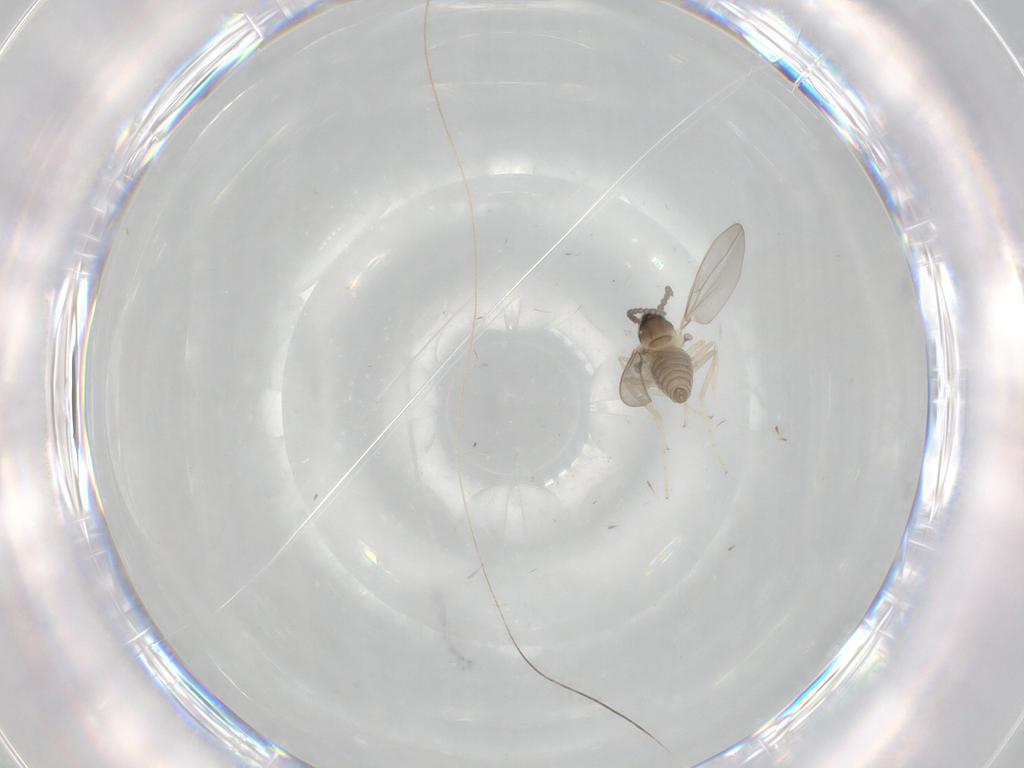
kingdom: Animalia
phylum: Arthropoda
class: Insecta
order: Diptera
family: Phoridae
